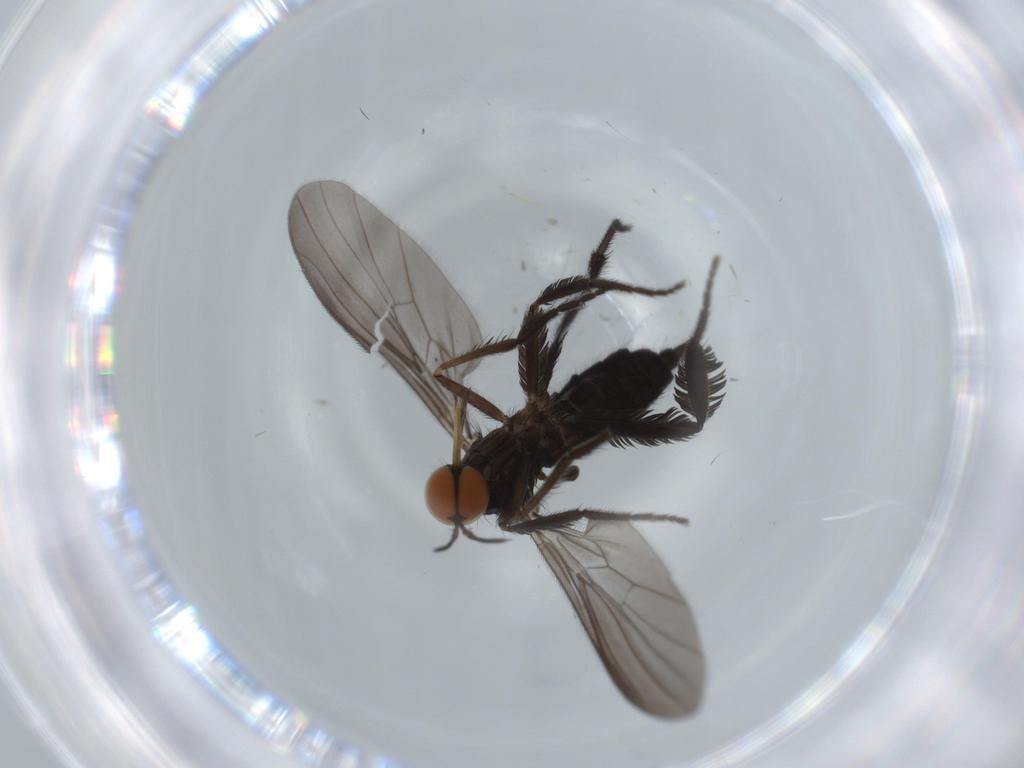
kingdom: Animalia
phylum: Arthropoda
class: Insecta
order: Diptera
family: Empididae
